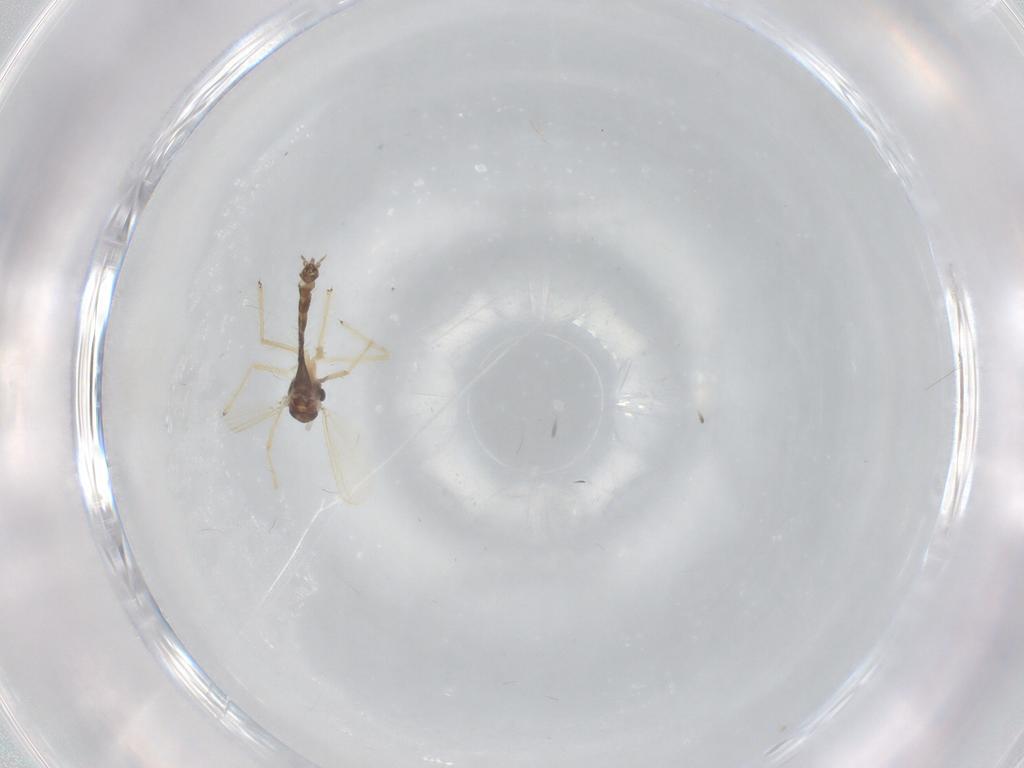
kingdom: Animalia
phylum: Arthropoda
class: Insecta
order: Diptera
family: Chironomidae
